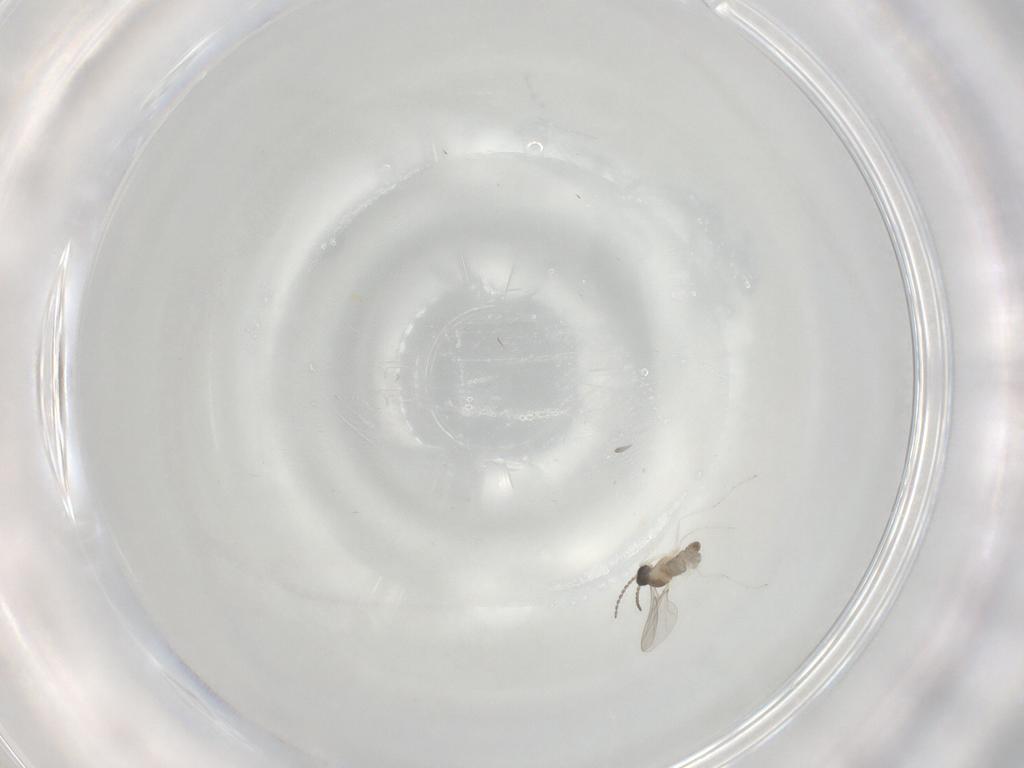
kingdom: Animalia
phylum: Arthropoda
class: Insecta
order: Diptera
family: Cecidomyiidae
